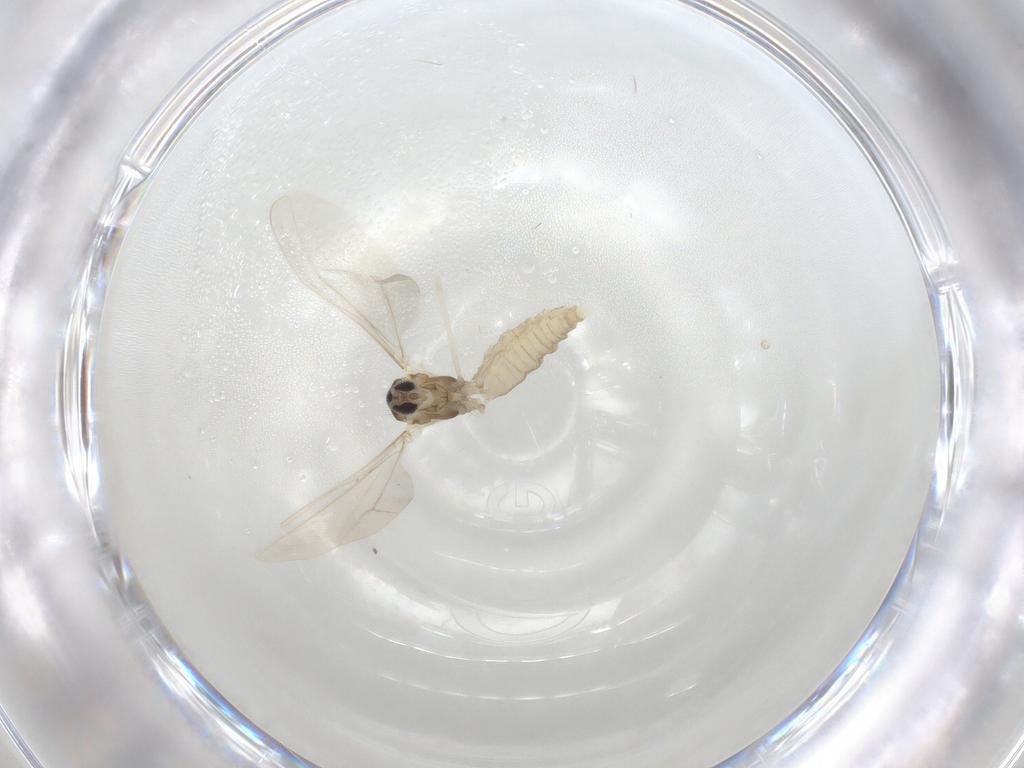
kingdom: Animalia
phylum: Arthropoda
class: Insecta
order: Diptera
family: Cecidomyiidae
